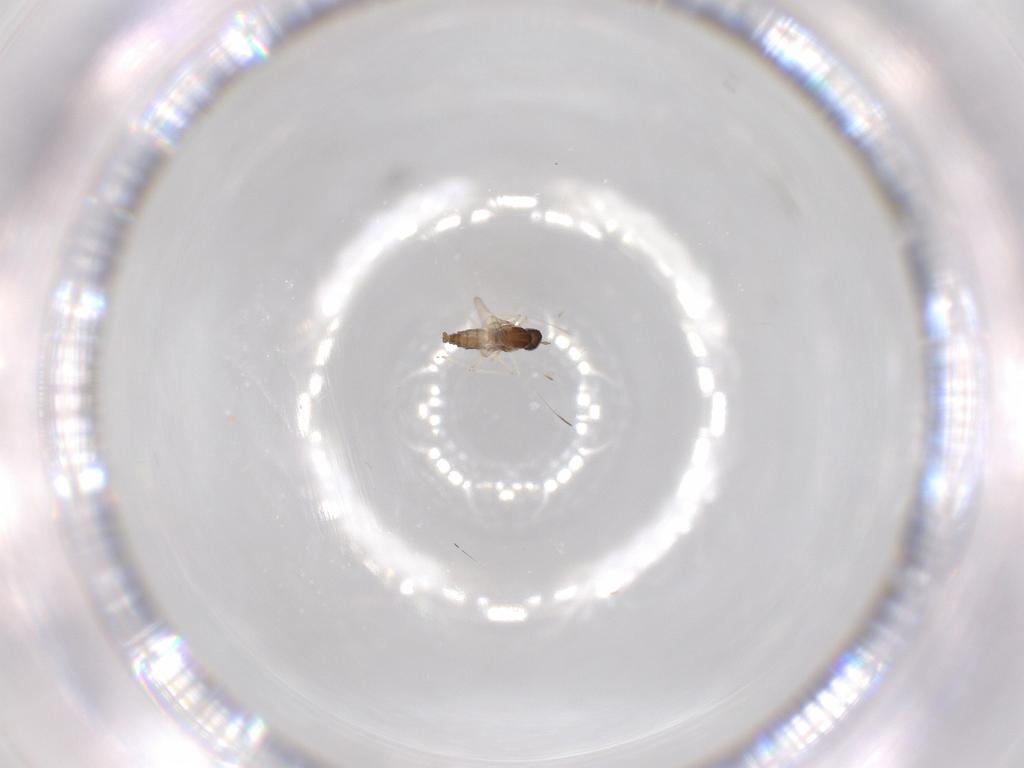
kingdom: Animalia
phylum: Arthropoda
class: Insecta
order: Diptera
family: Cecidomyiidae
